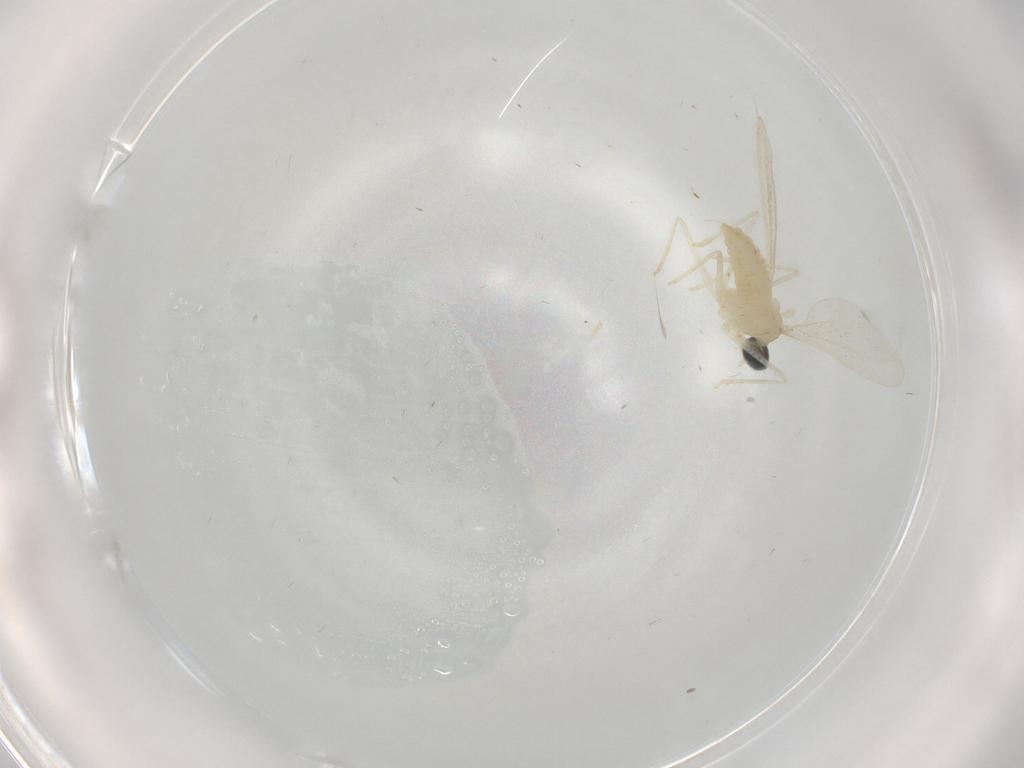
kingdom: Animalia
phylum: Arthropoda
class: Insecta
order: Diptera
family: Cecidomyiidae
